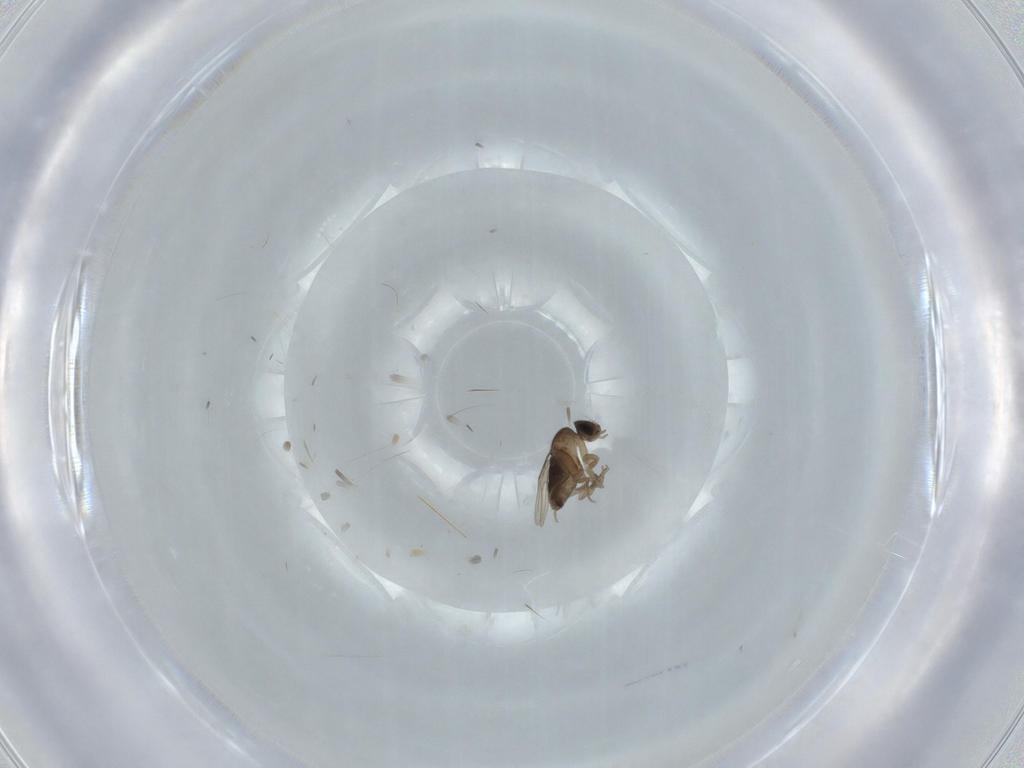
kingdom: Animalia
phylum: Arthropoda
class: Insecta
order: Diptera
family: Phoridae
